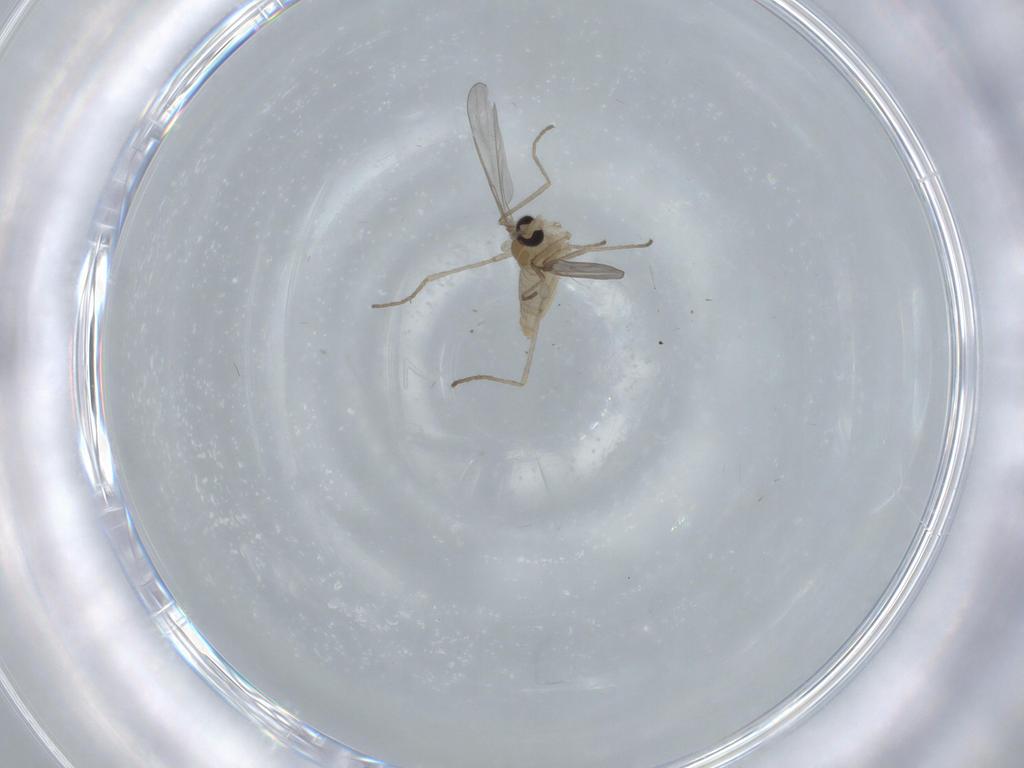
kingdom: Animalia
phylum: Arthropoda
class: Insecta
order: Diptera
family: Cecidomyiidae
